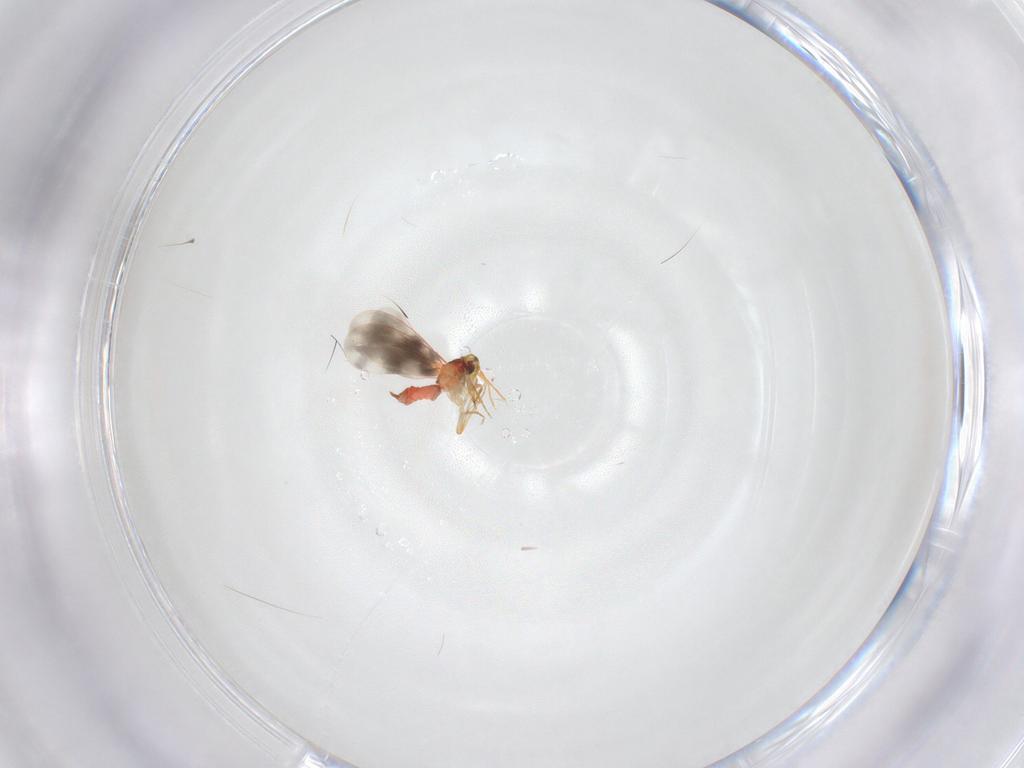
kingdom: Animalia
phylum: Arthropoda
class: Insecta
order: Hemiptera
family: Aleyrodidae
